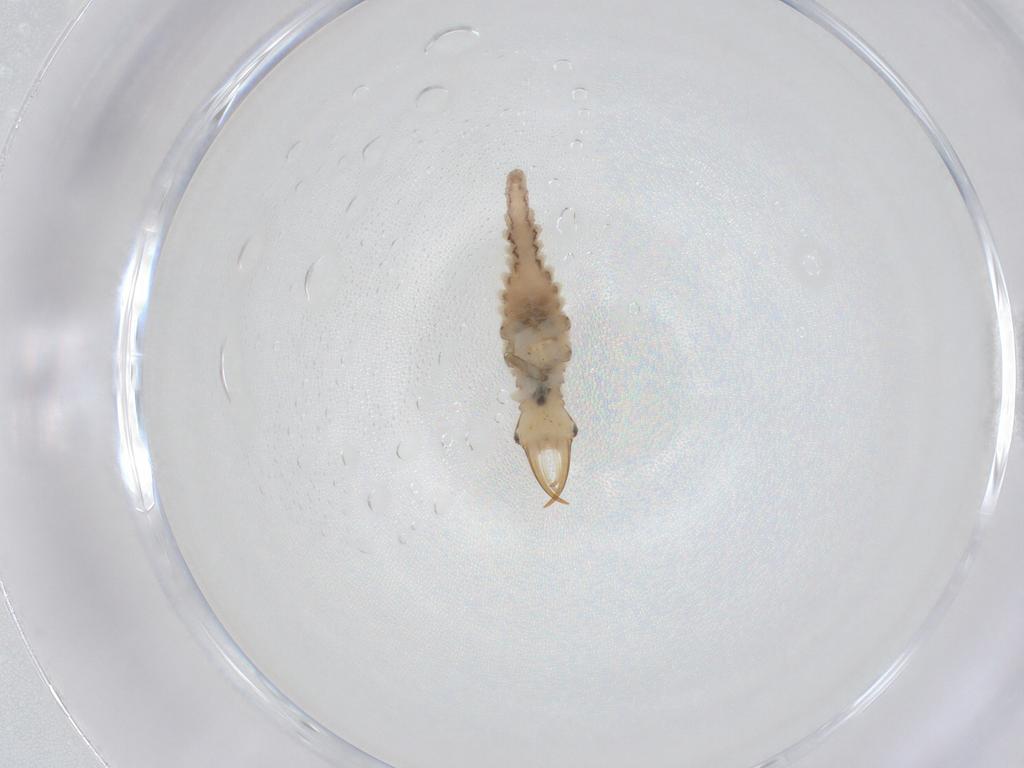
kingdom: Animalia
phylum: Arthropoda
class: Insecta
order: Neuroptera
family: Chrysopidae
